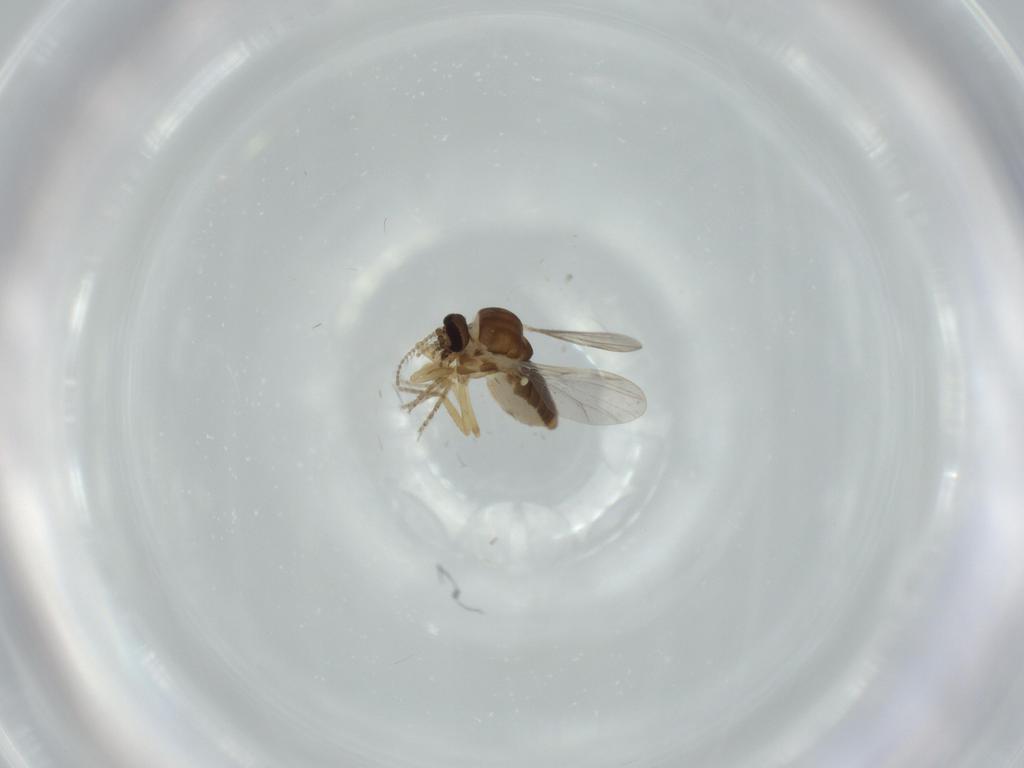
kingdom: Animalia
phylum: Arthropoda
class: Insecta
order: Diptera
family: Ceratopogonidae
